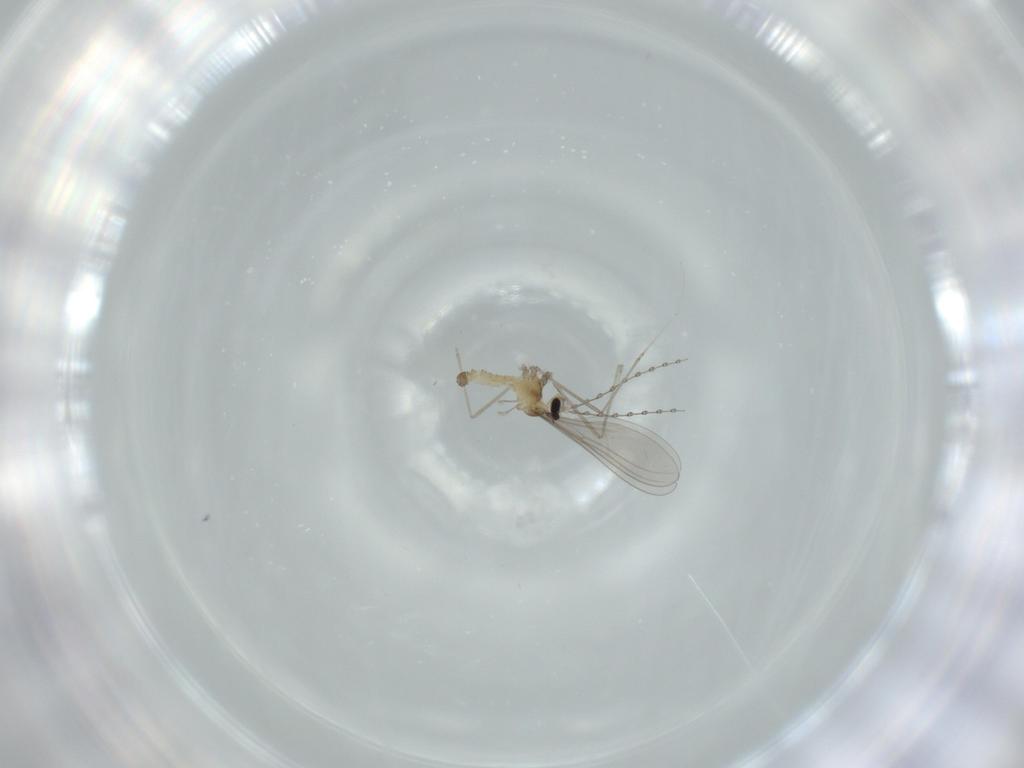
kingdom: Animalia
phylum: Arthropoda
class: Insecta
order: Diptera
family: Cecidomyiidae
